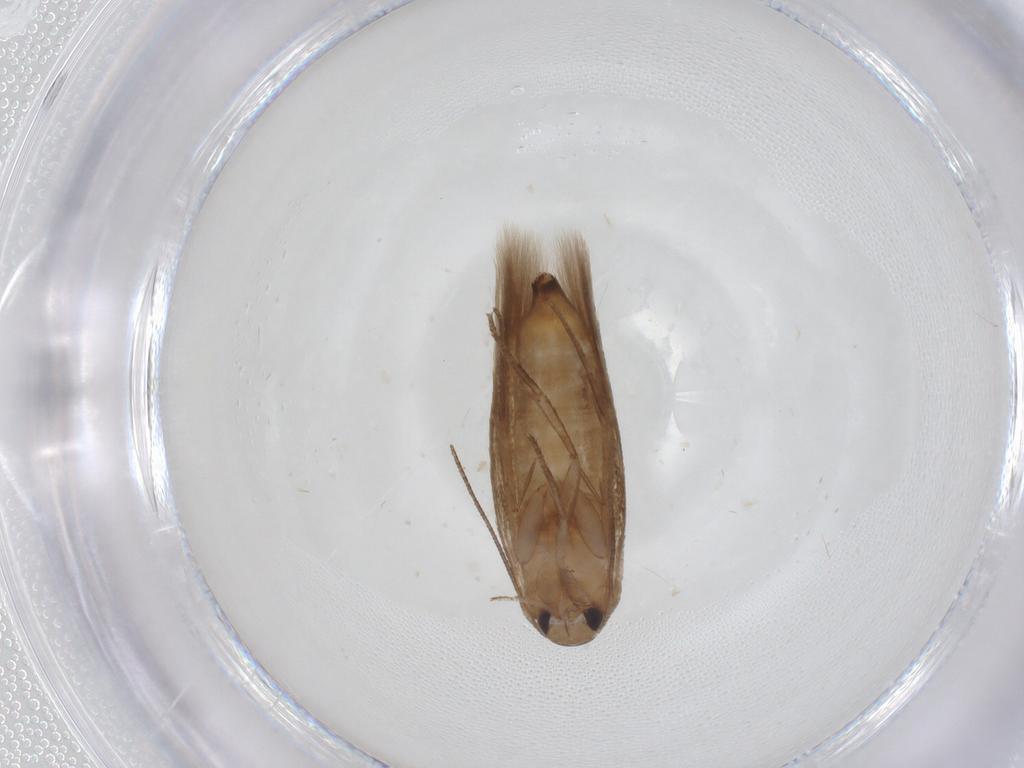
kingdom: Animalia
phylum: Arthropoda
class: Insecta
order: Lepidoptera
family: Cosmopterigidae
